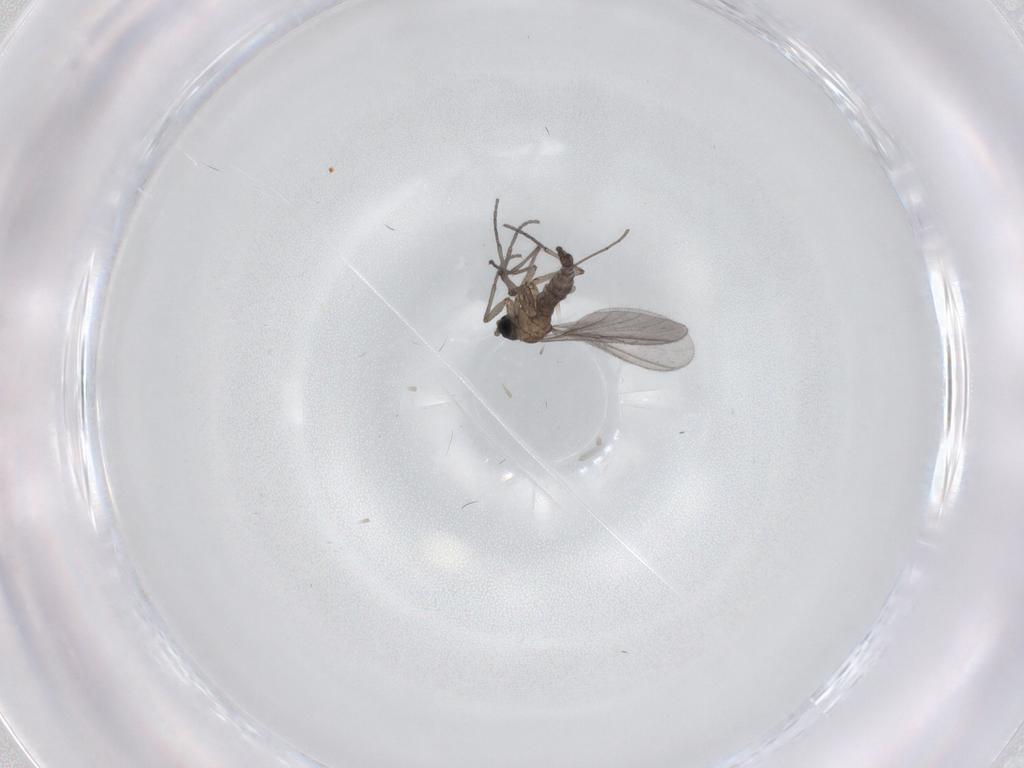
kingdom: Animalia
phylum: Arthropoda
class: Insecta
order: Diptera
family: Sciaridae
